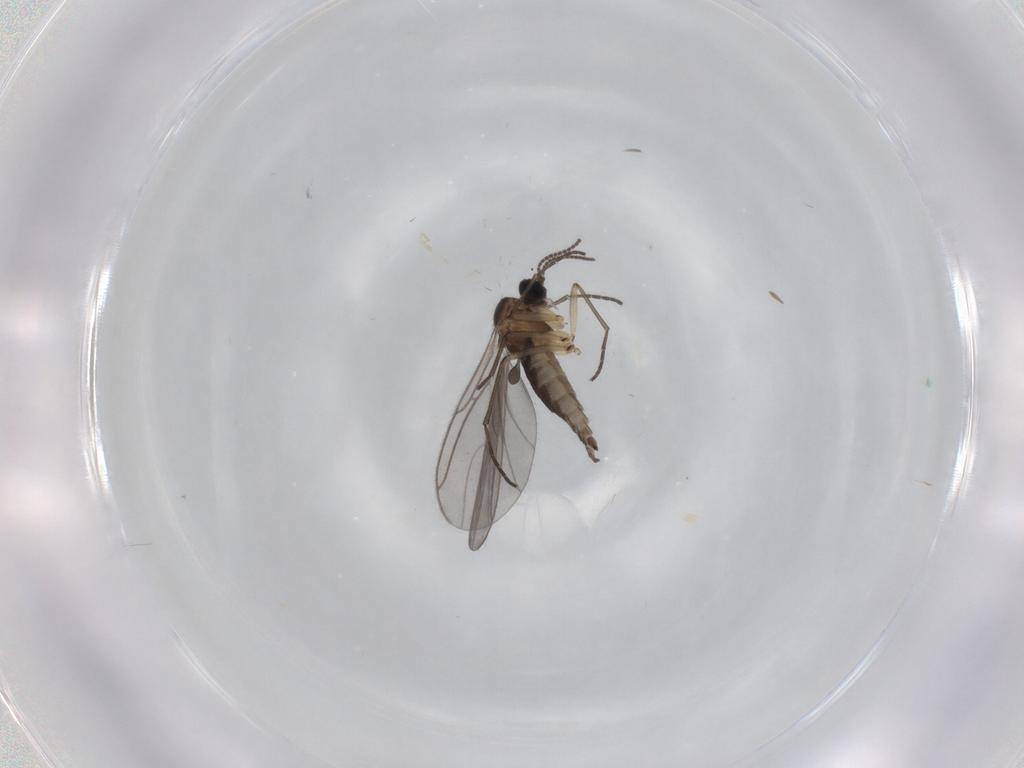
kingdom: Animalia
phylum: Arthropoda
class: Insecta
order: Diptera
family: Sciaridae
